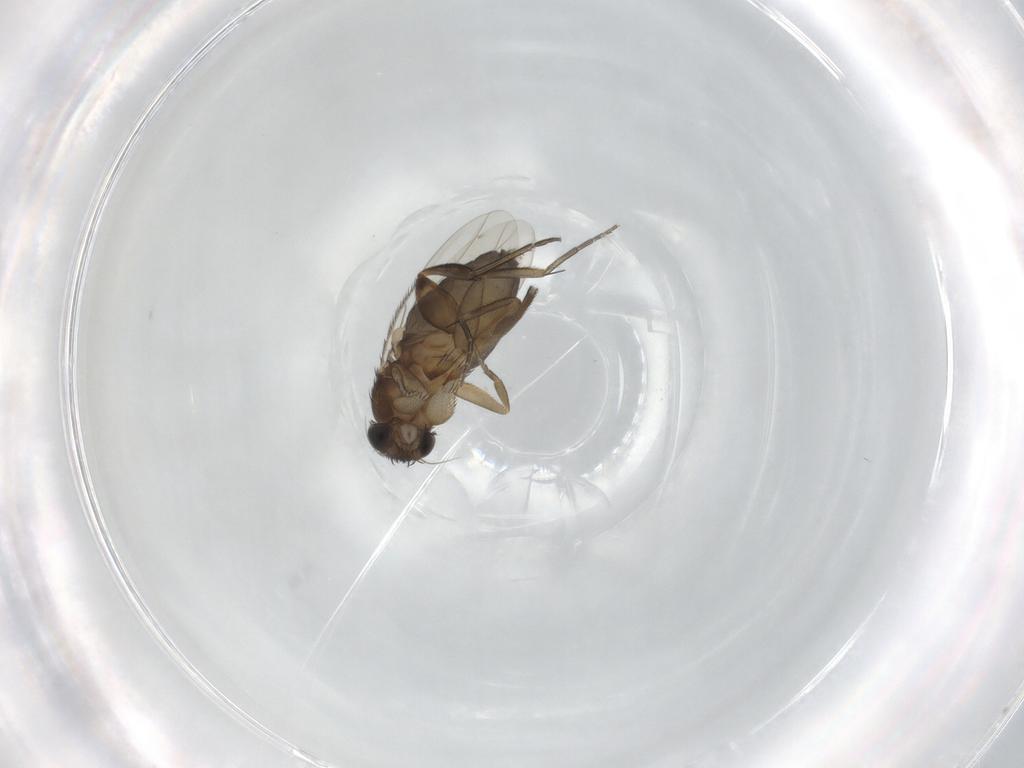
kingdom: Animalia
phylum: Arthropoda
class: Insecta
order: Diptera
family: Phoridae
